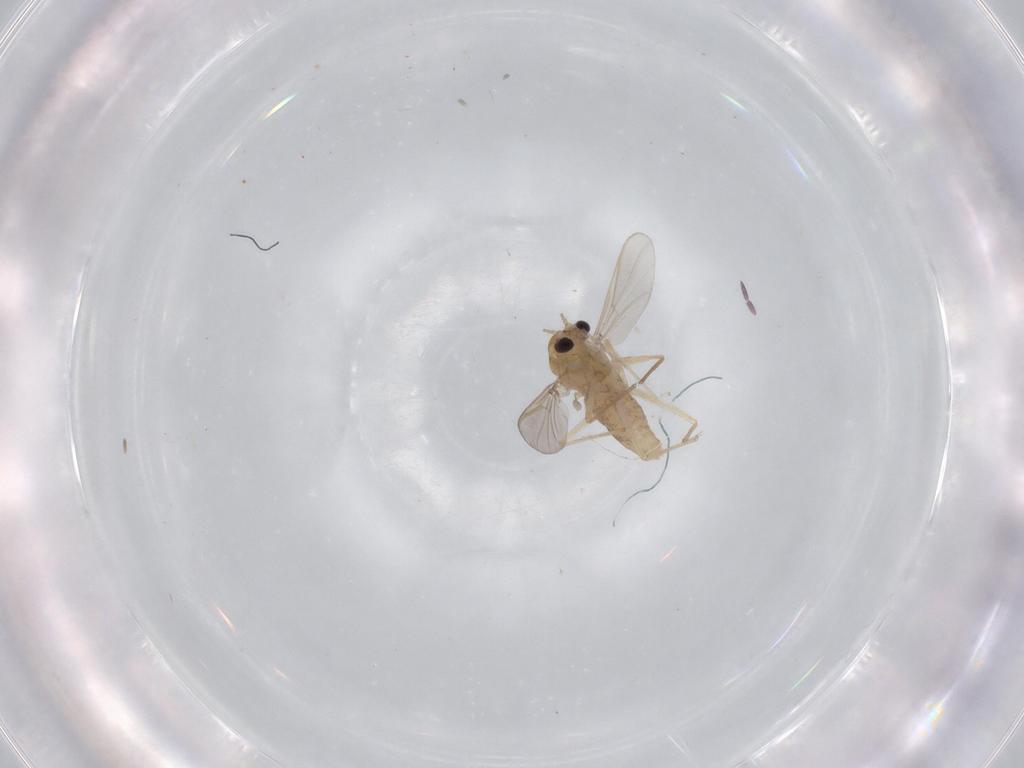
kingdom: Animalia
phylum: Arthropoda
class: Insecta
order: Diptera
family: Chironomidae
